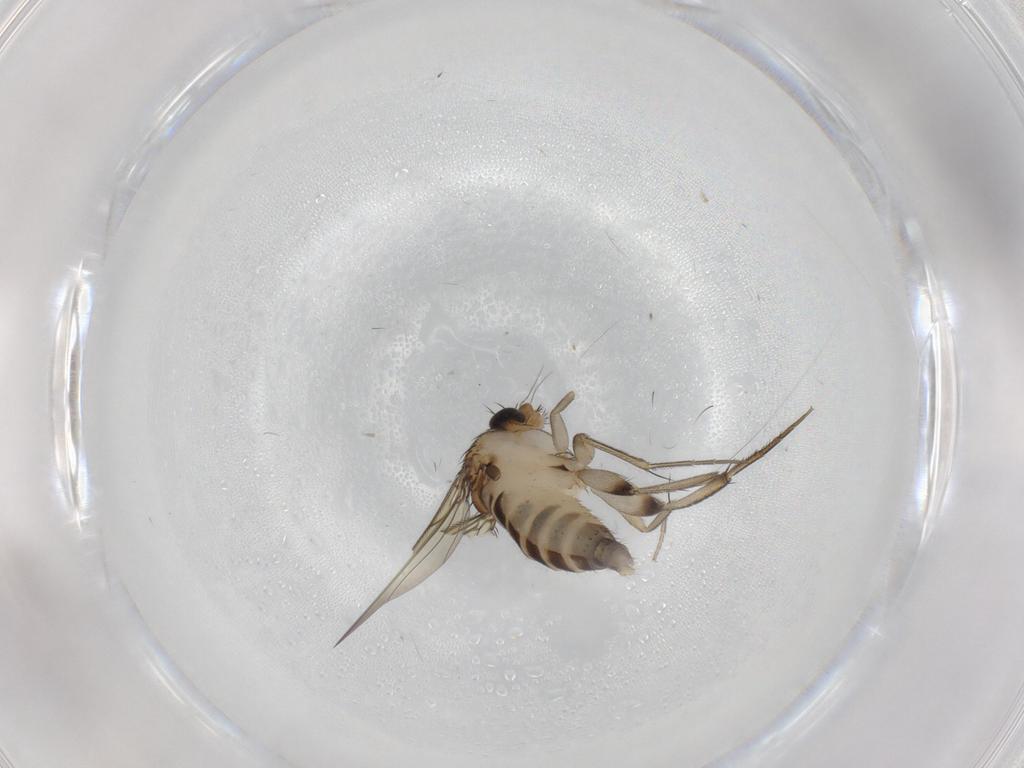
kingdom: Animalia
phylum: Arthropoda
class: Insecta
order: Diptera
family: Phoridae
